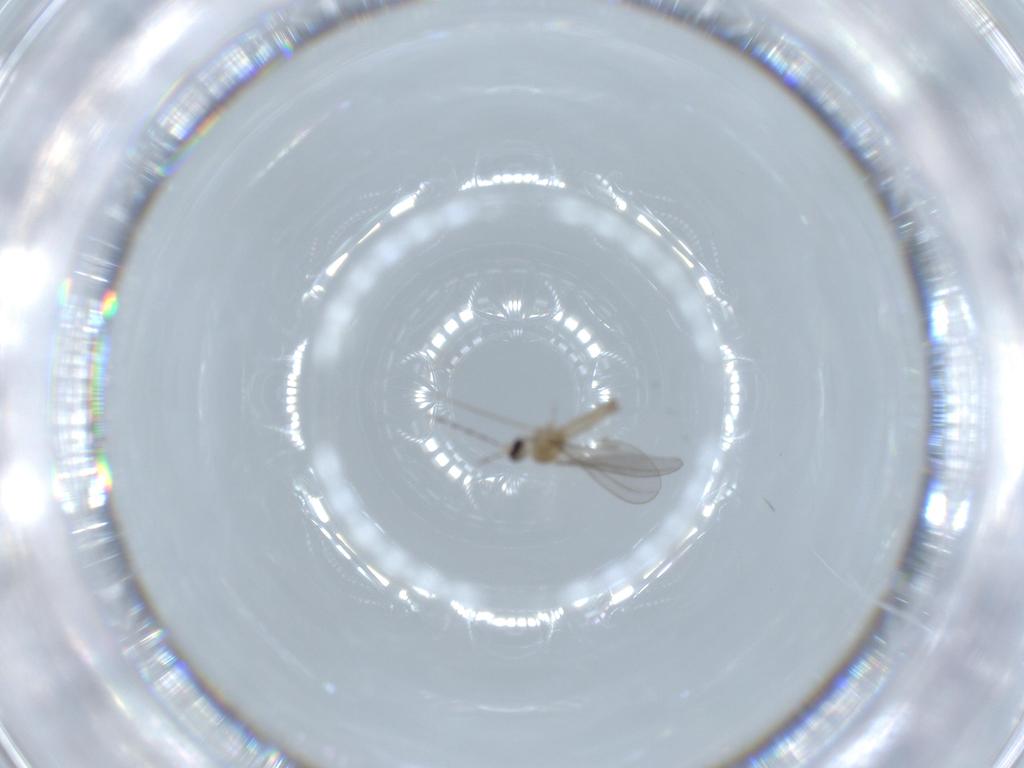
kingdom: Animalia
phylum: Arthropoda
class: Insecta
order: Diptera
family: Cecidomyiidae
